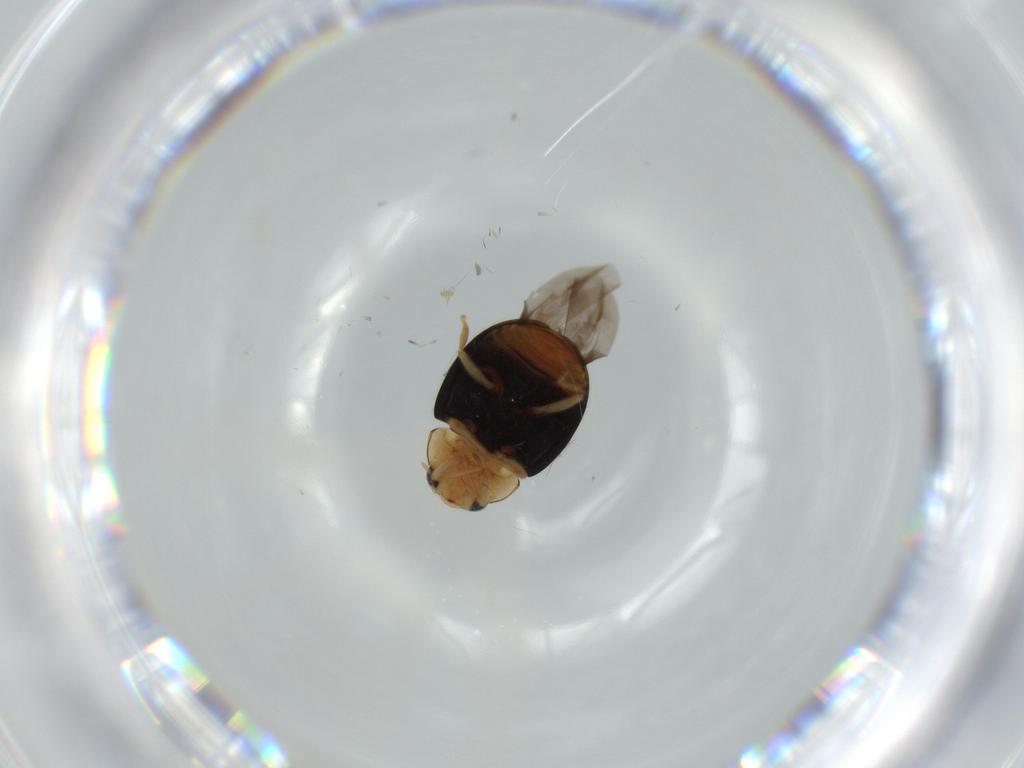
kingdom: Animalia
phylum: Arthropoda
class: Insecta
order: Coleoptera
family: Curculionidae
